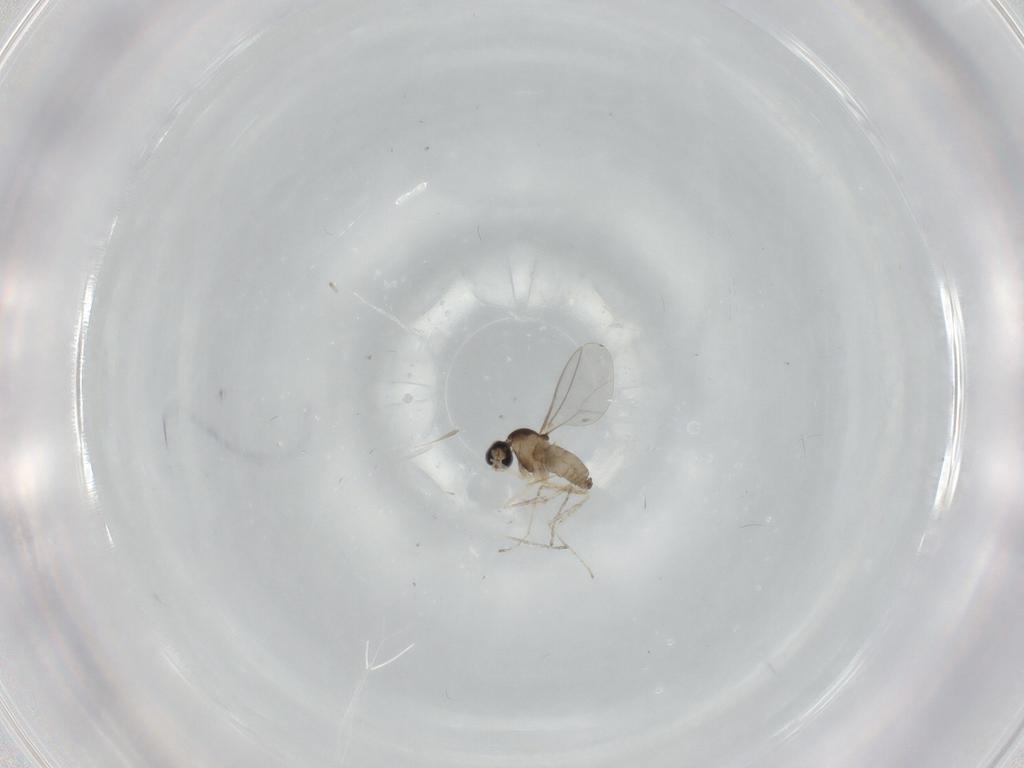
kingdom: Animalia
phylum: Arthropoda
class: Insecta
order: Diptera
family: Cecidomyiidae
